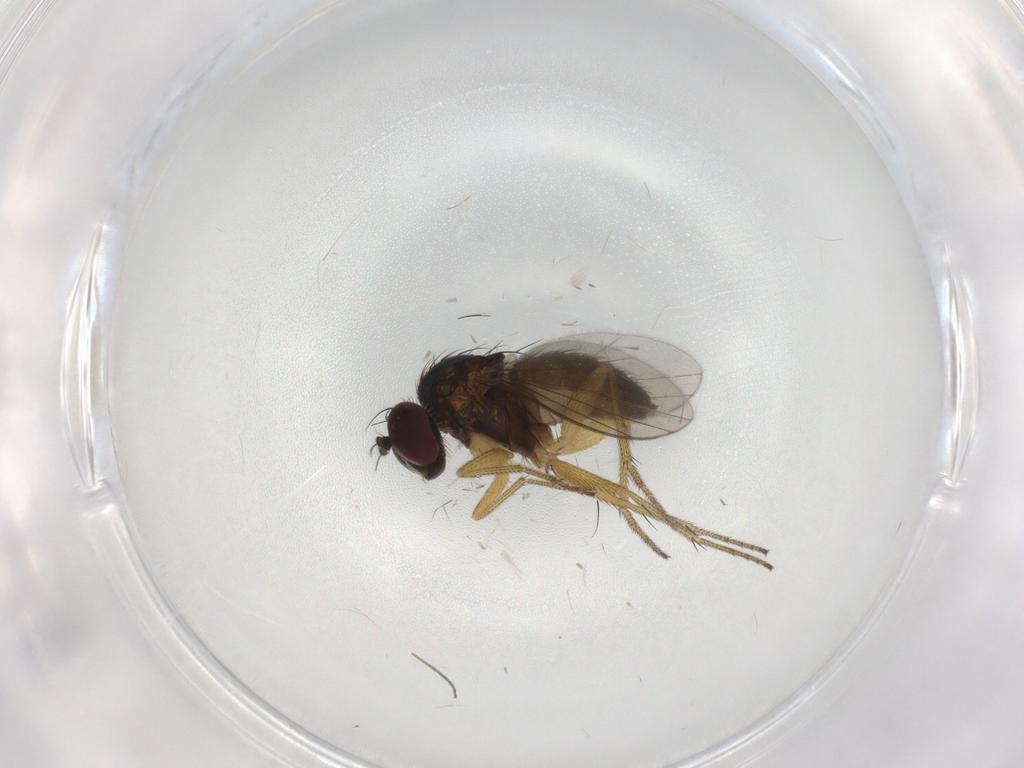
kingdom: Animalia
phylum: Arthropoda
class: Insecta
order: Diptera
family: Dolichopodidae
